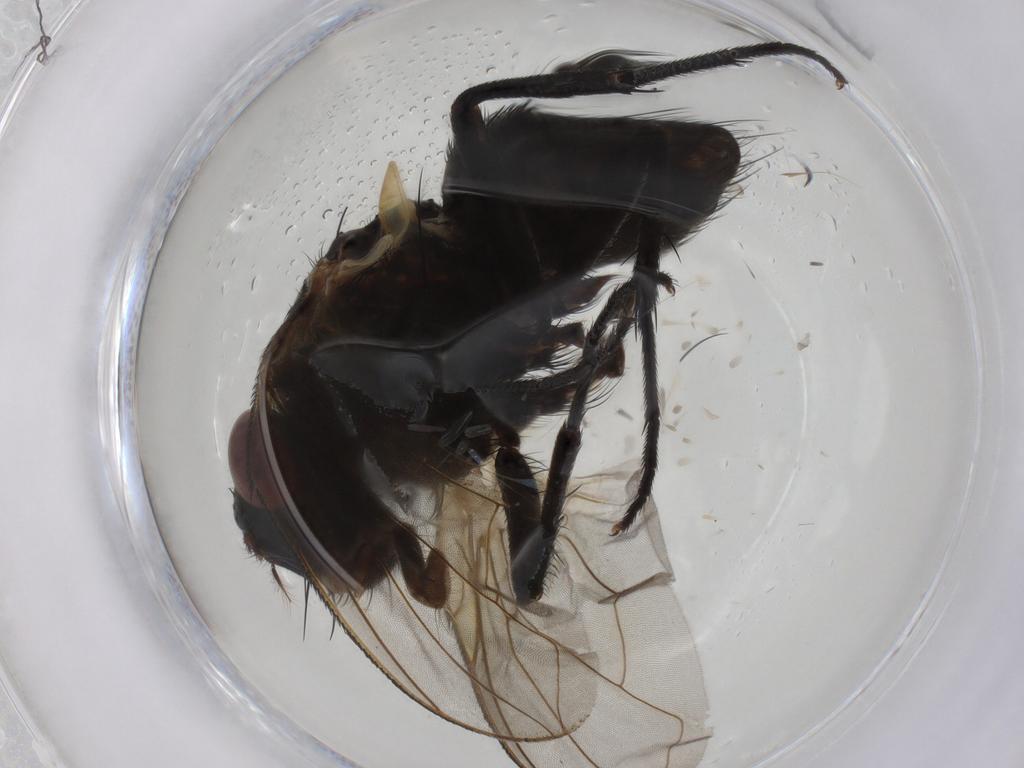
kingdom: Animalia
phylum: Arthropoda
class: Insecta
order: Diptera
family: Calliphoridae
